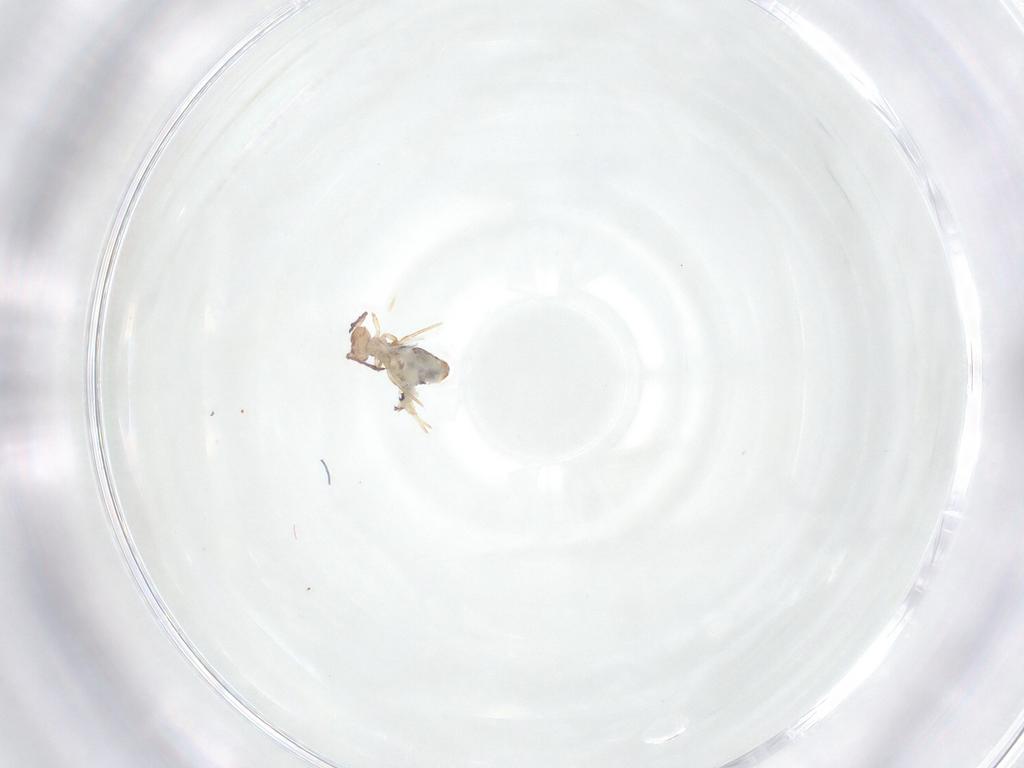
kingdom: Animalia
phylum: Arthropoda
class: Collembola
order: Symphypleona
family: Dicyrtomidae
